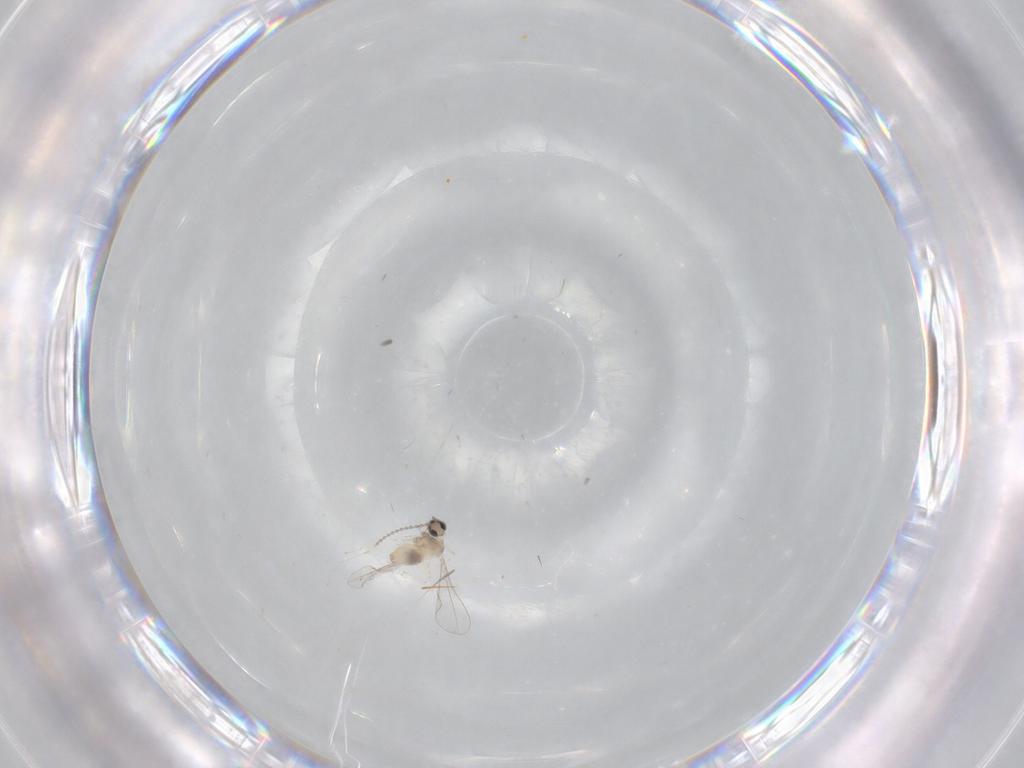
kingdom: Animalia
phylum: Arthropoda
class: Insecta
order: Diptera
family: Cecidomyiidae
